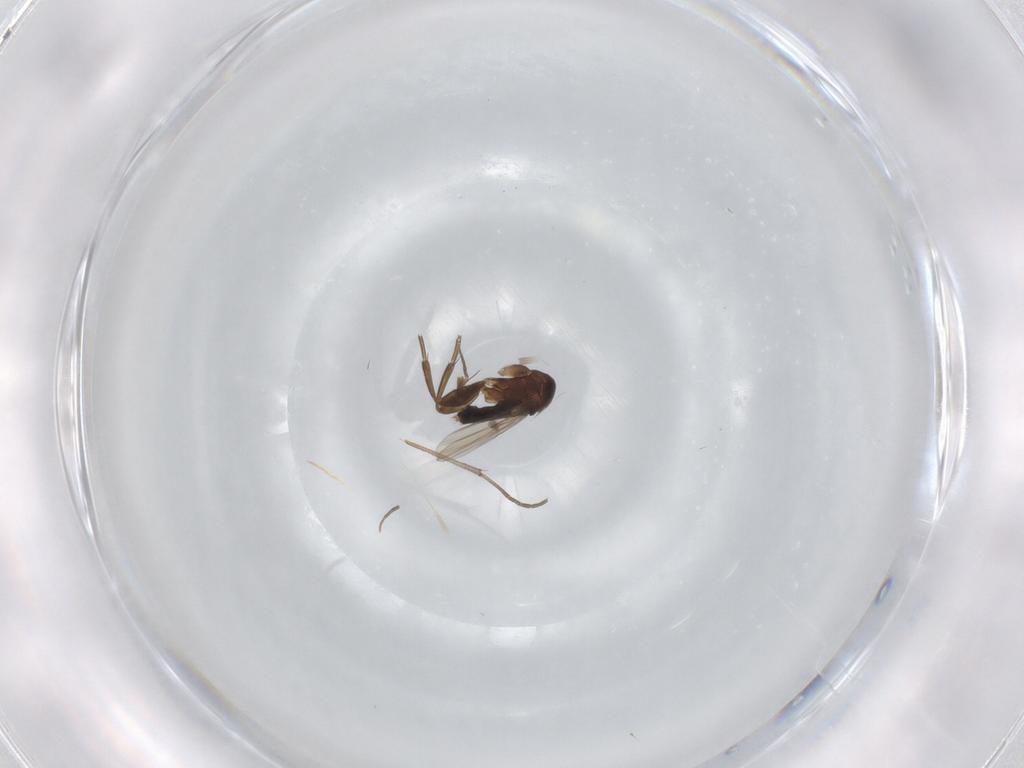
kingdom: Animalia
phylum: Arthropoda
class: Insecta
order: Diptera
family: Phoridae
